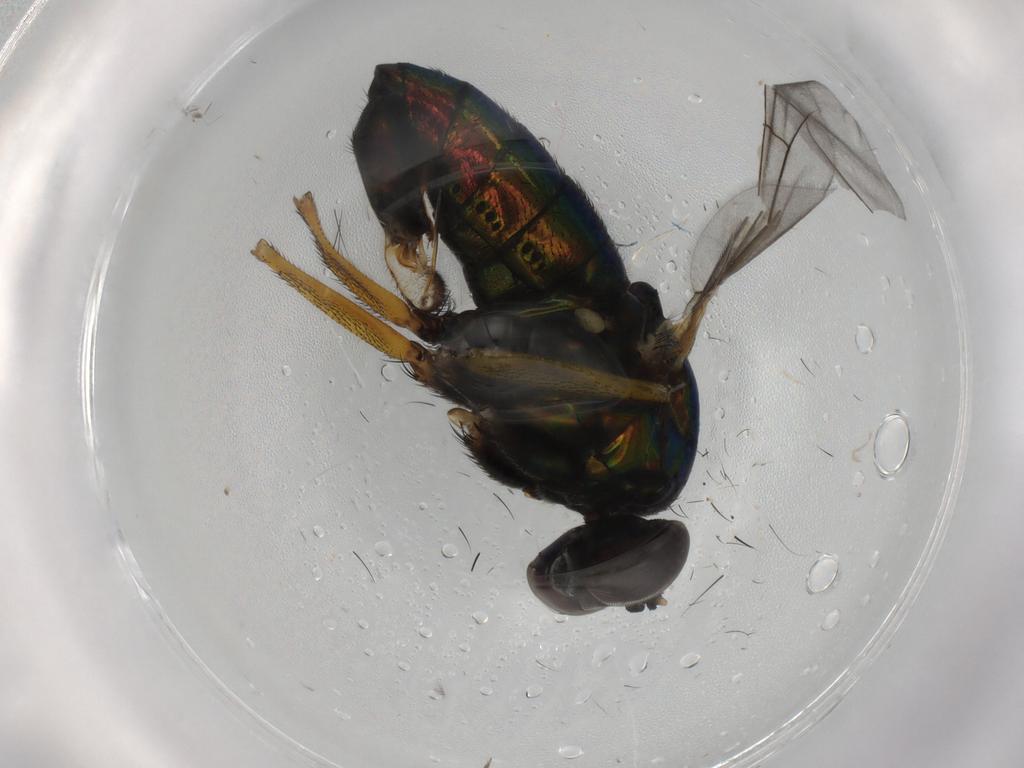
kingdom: Animalia
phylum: Arthropoda
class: Insecta
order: Diptera
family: Dolichopodidae
